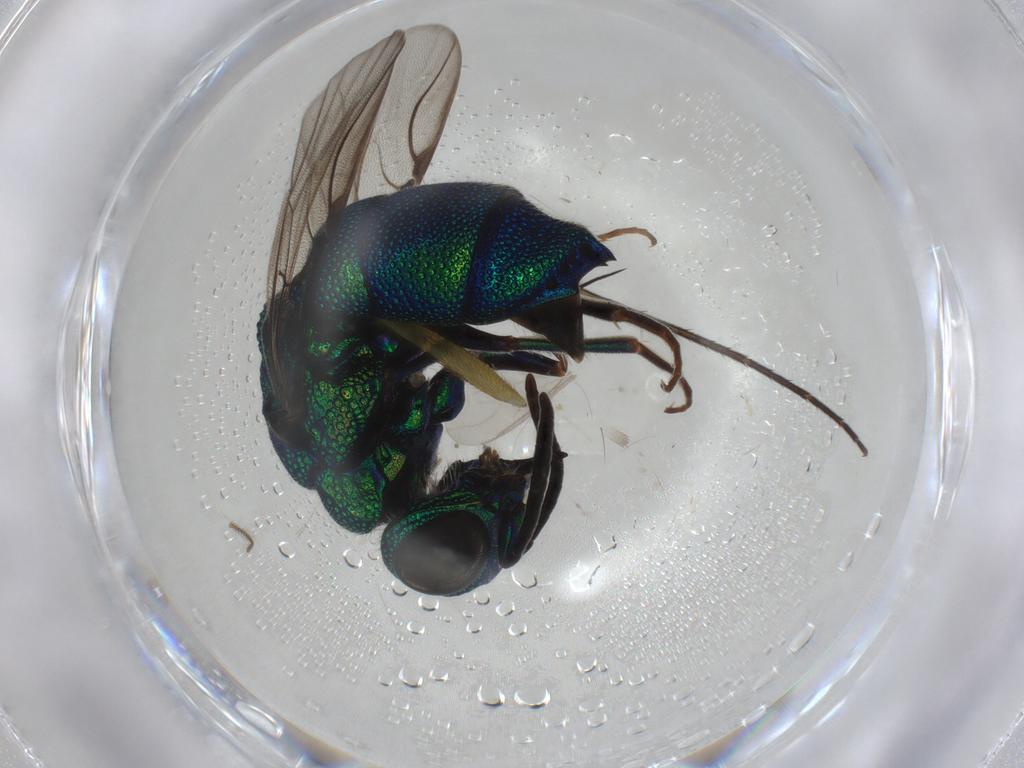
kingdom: Animalia
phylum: Arthropoda
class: Insecta
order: Hymenoptera
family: Chrysididae
